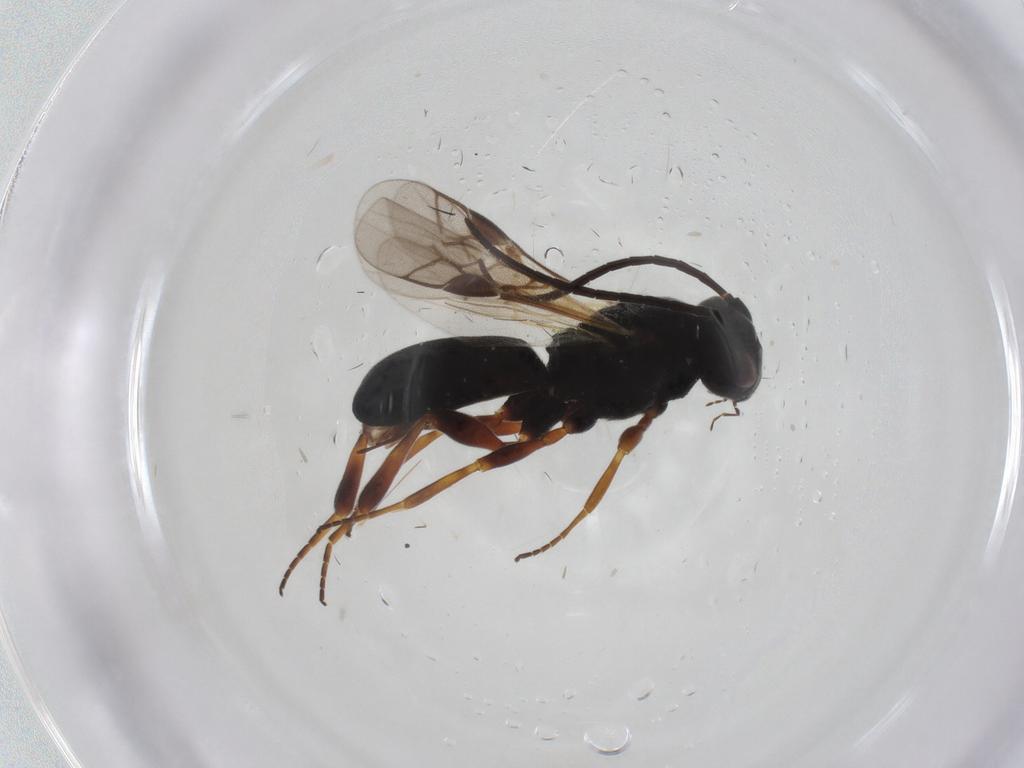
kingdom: Animalia
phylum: Arthropoda
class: Insecta
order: Hymenoptera
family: Braconidae
